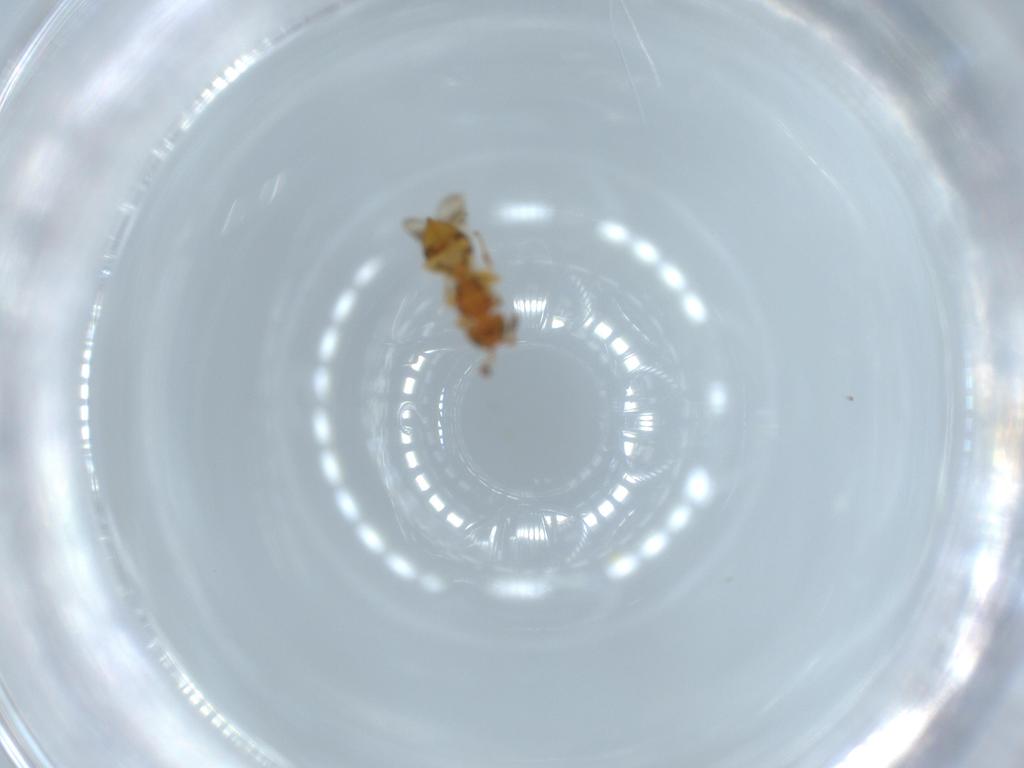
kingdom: Animalia
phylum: Arthropoda
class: Insecta
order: Hymenoptera
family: Scelionidae
